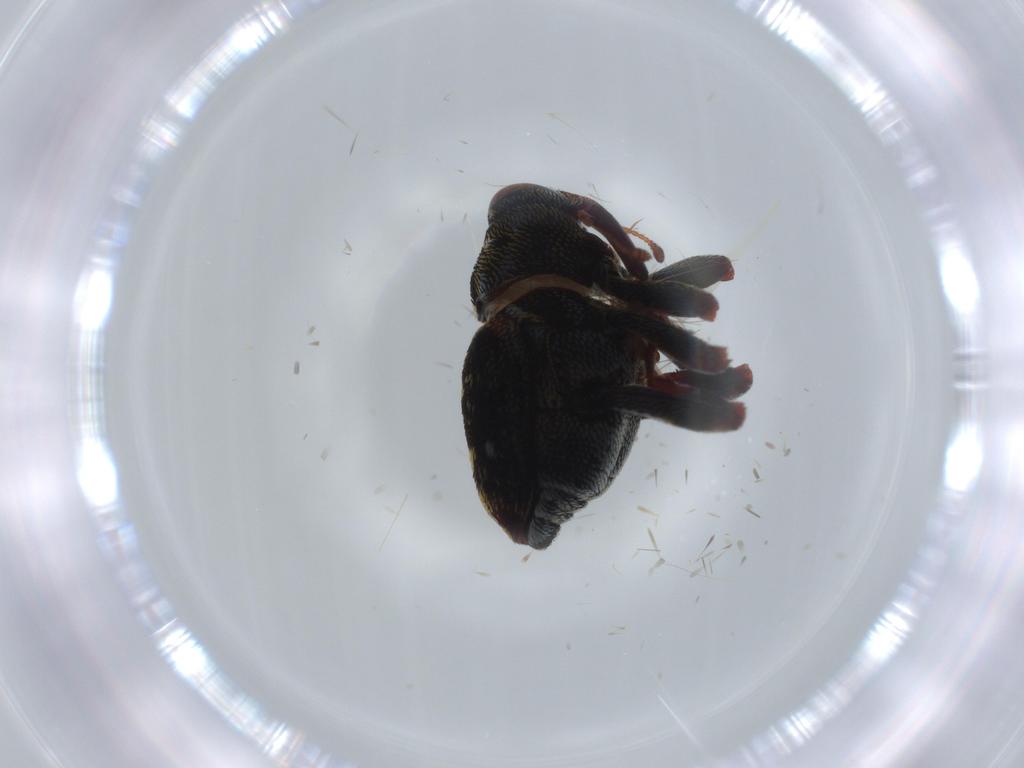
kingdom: Animalia
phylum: Arthropoda
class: Insecta
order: Coleoptera
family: Curculionidae
